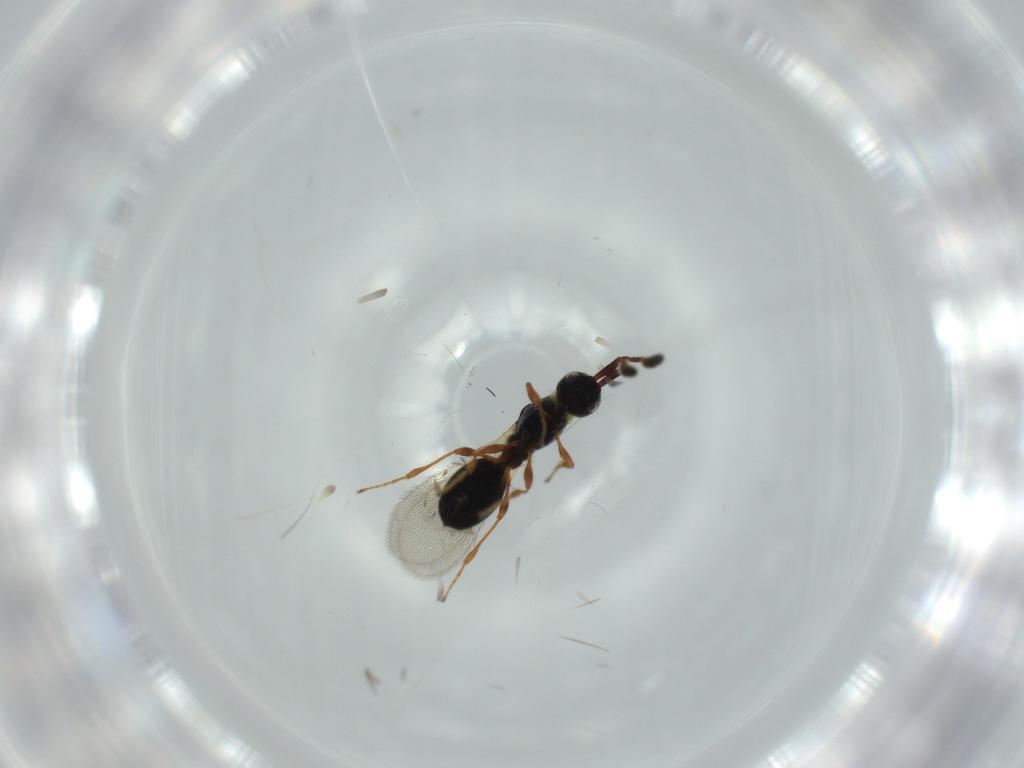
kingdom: Animalia
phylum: Arthropoda
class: Insecta
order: Hymenoptera
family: Diapriidae
